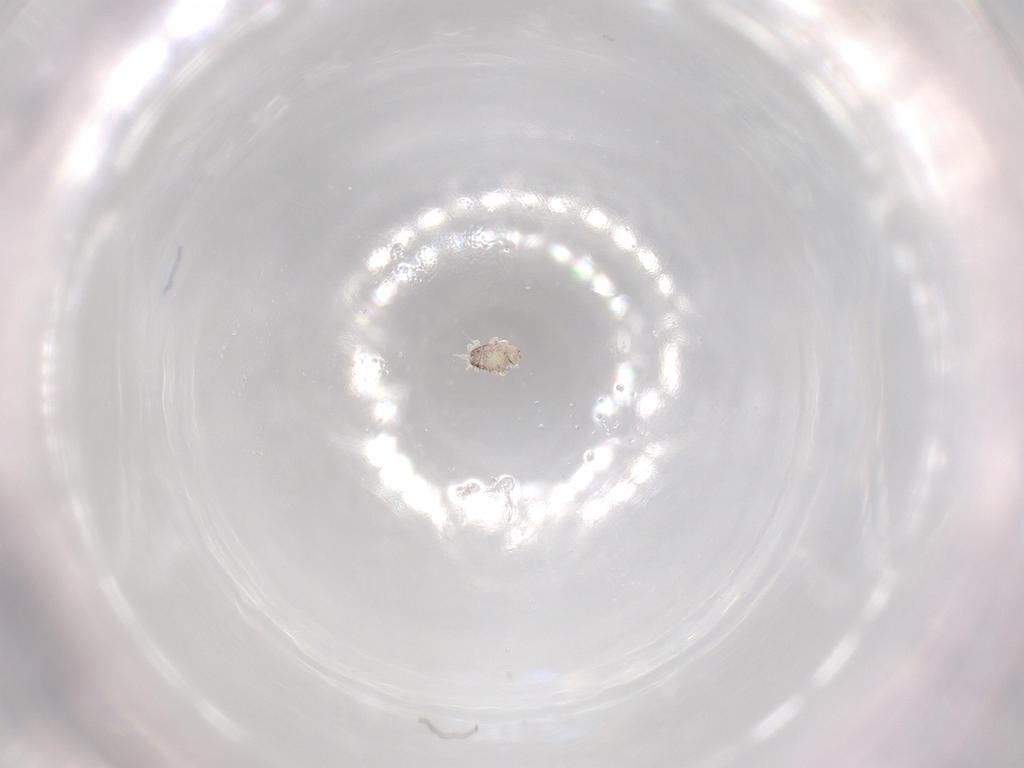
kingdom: Animalia
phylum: Arthropoda
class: Arachnida
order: Trombidiformes
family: Eupodidae
